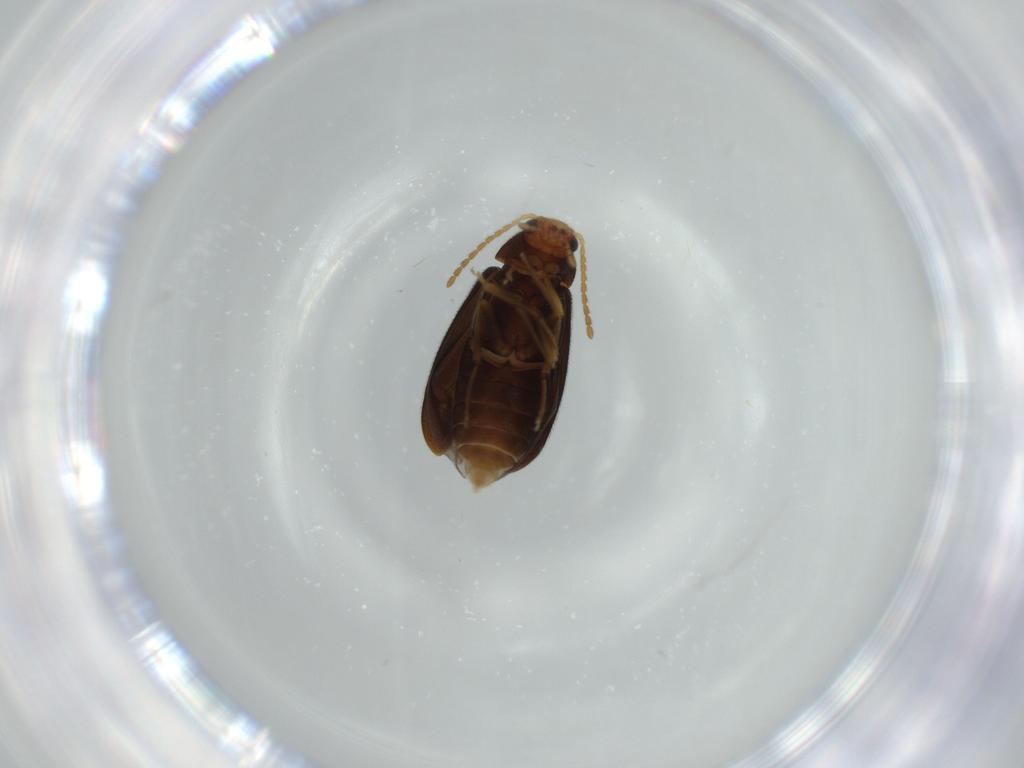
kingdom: Animalia
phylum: Arthropoda
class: Insecta
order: Coleoptera
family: Melandryidae
